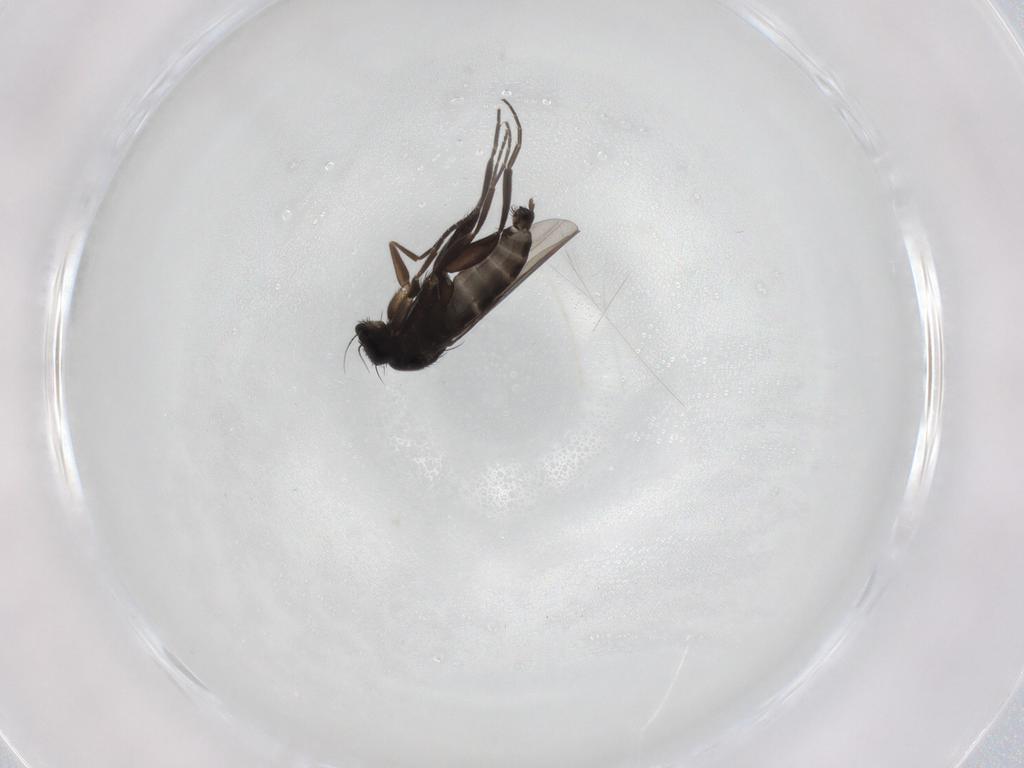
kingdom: Animalia
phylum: Arthropoda
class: Insecta
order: Diptera
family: Phoridae
